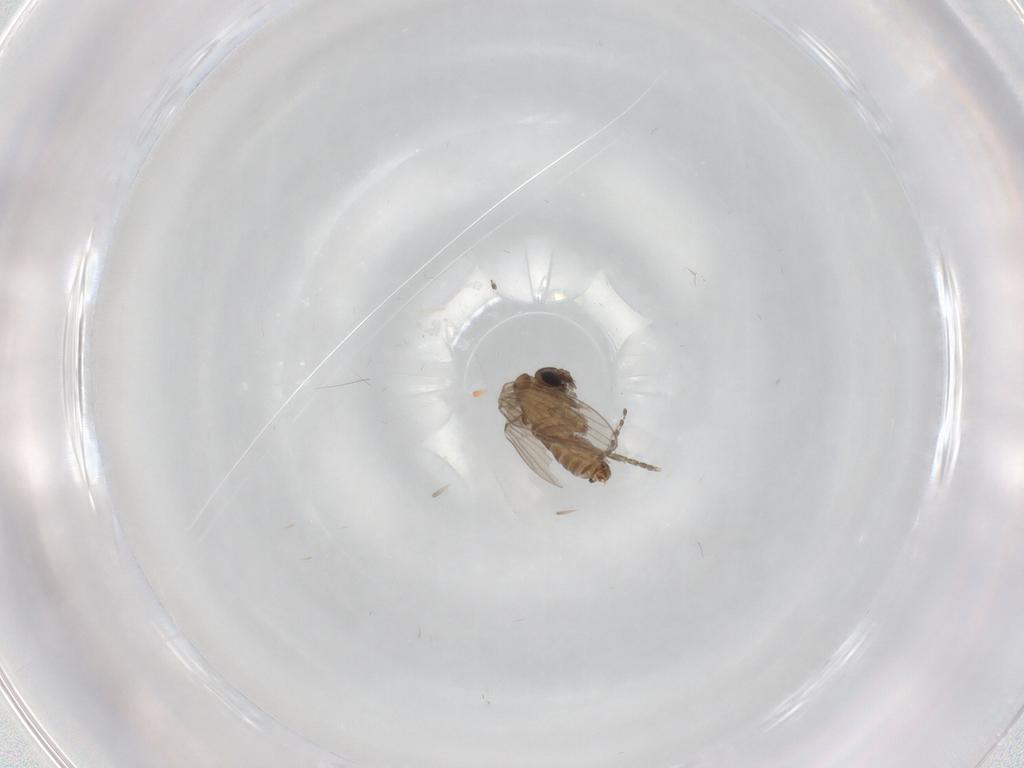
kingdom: Animalia
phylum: Arthropoda
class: Insecta
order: Diptera
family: Psychodidae
